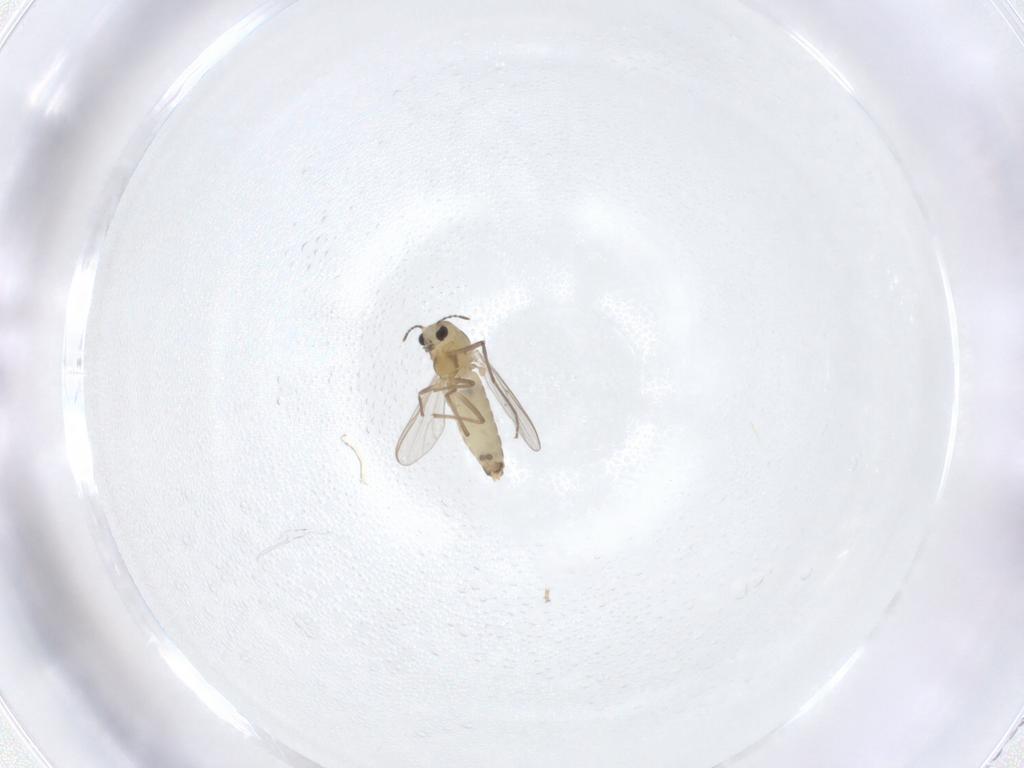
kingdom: Animalia
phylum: Arthropoda
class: Insecta
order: Diptera
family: Chironomidae
